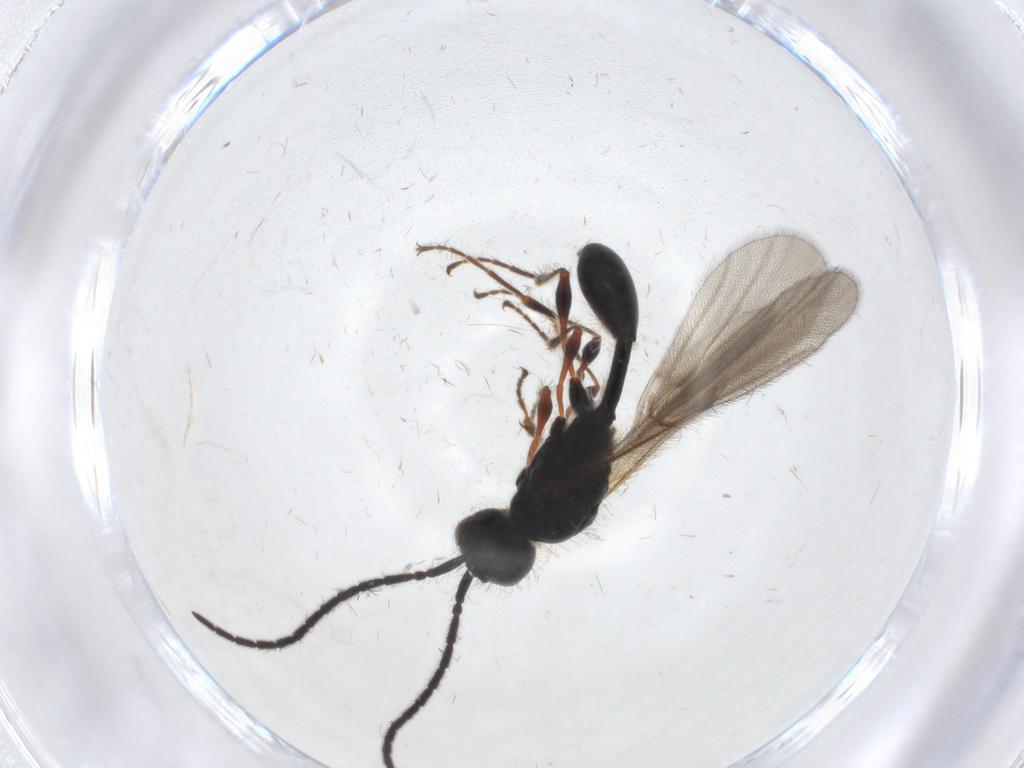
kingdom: Animalia
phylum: Arthropoda
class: Insecta
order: Hymenoptera
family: Diapriidae
